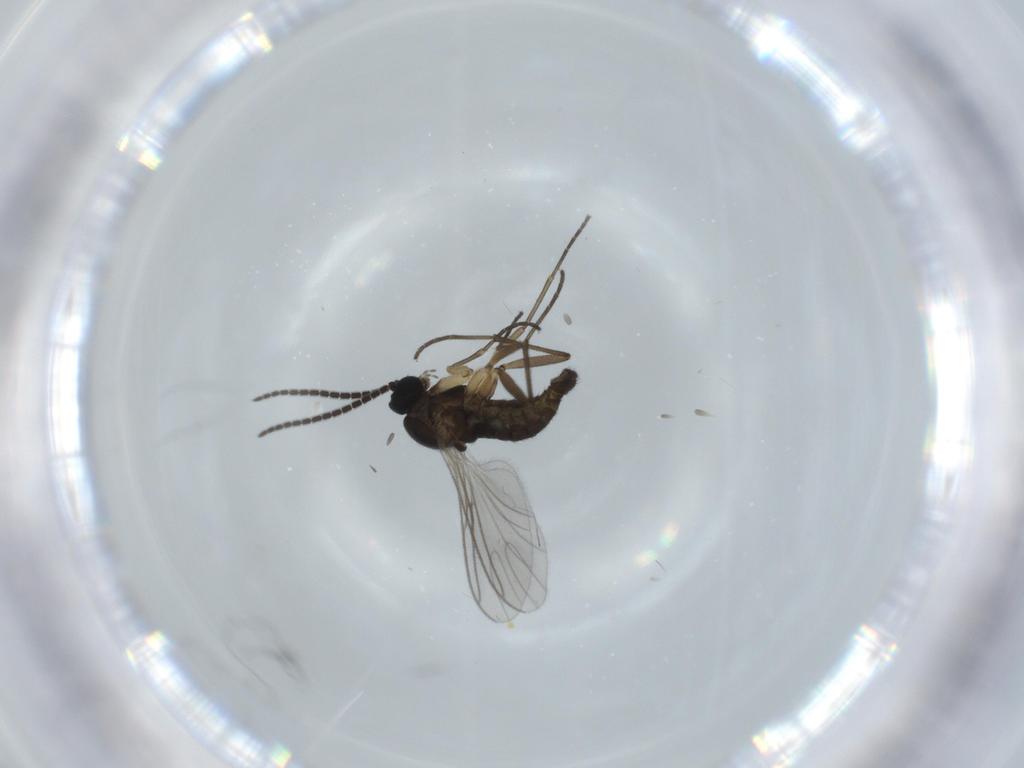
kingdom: Animalia
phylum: Arthropoda
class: Insecta
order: Diptera
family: Sciaridae
